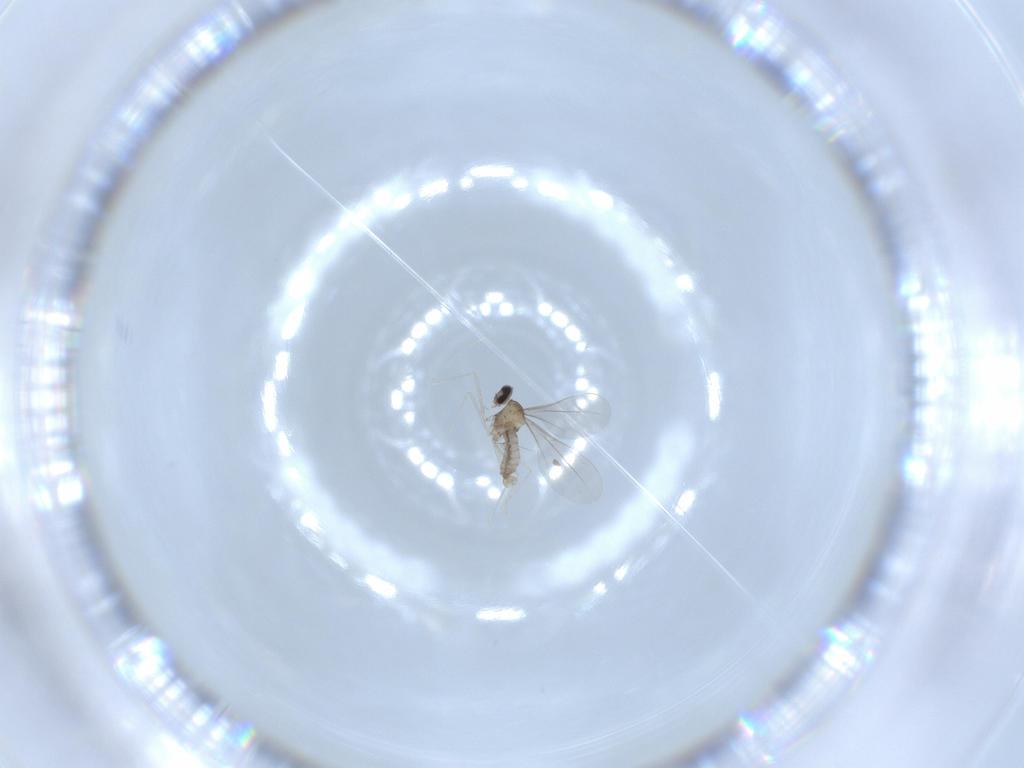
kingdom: Animalia
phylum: Arthropoda
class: Insecta
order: Diptera
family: Cecidomyiidae
